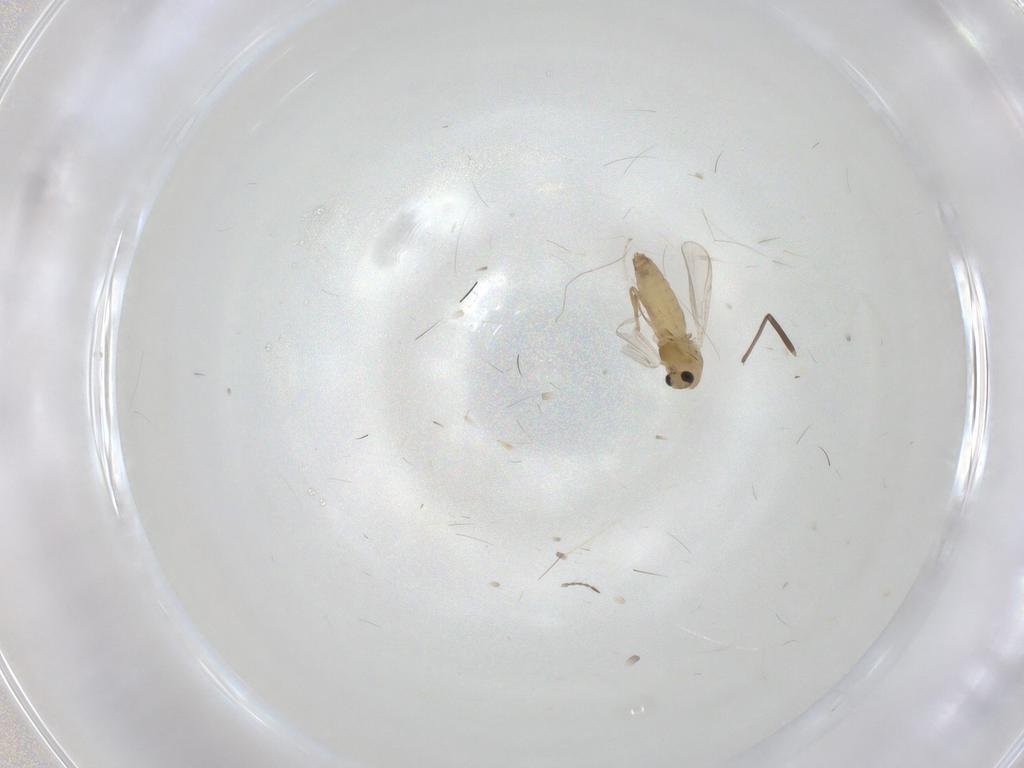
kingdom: Animalia
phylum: Arthropoda
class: Insecta
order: Diptera
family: Chironomidae
